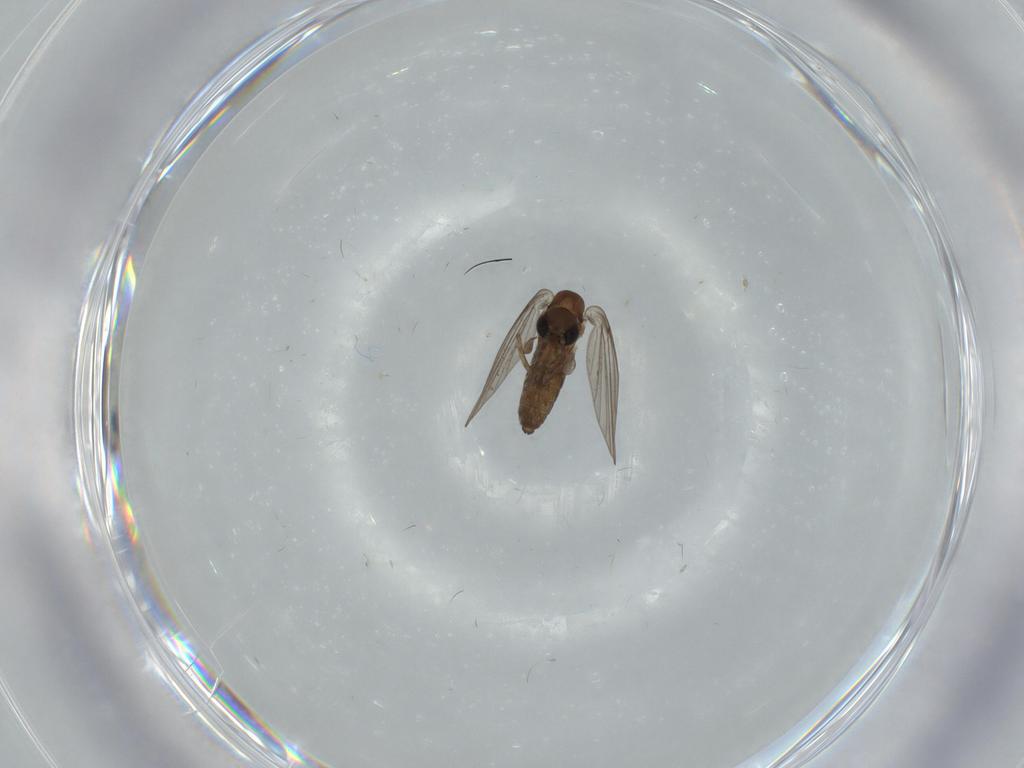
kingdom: Animalia
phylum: Arthropoda
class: Insecta
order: Diptera
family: Psychodidae
